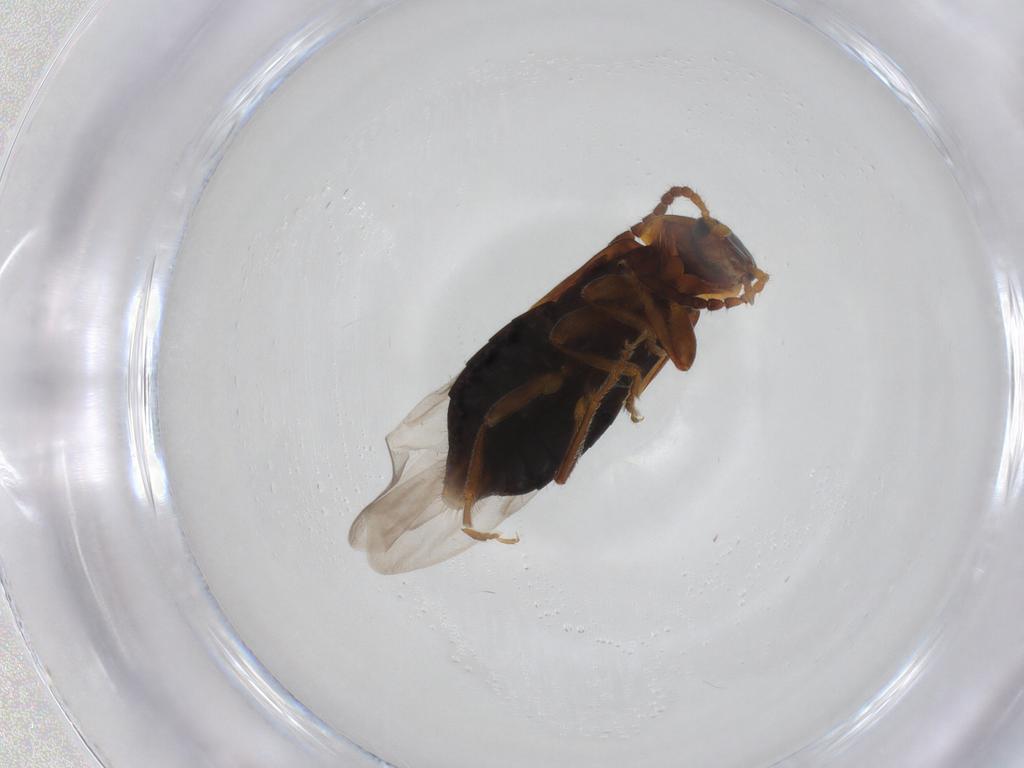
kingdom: Animalia
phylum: Arthropoda
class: Insecta
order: Coleoptera
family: Staphylinidae
